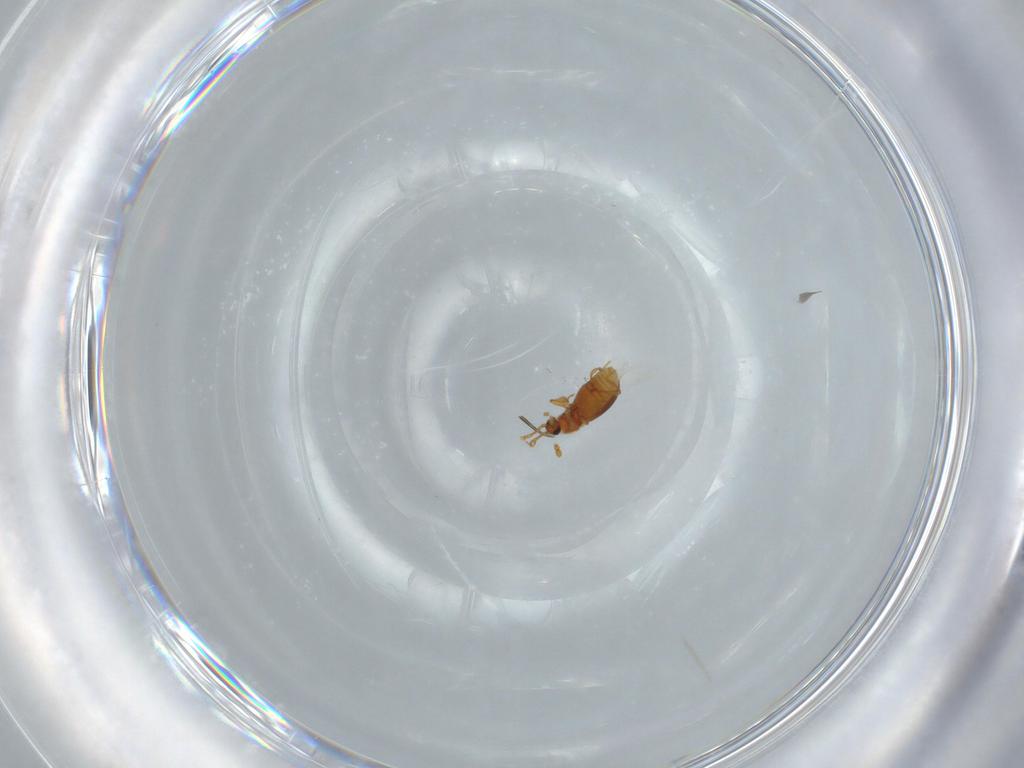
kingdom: Animalia
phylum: Arthropoda
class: Insecta
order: Coleoptera
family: Staphylinidae
